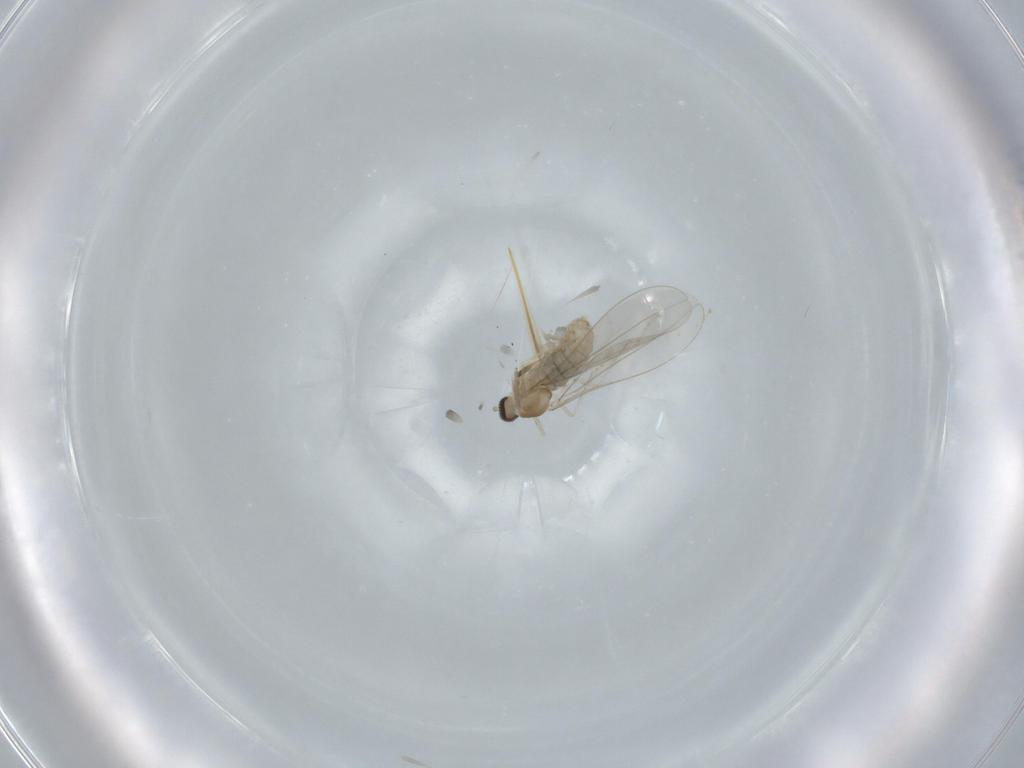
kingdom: Animalia
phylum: Arthropoda
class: Insecta
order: Diptera
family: Cecidomyiidae
